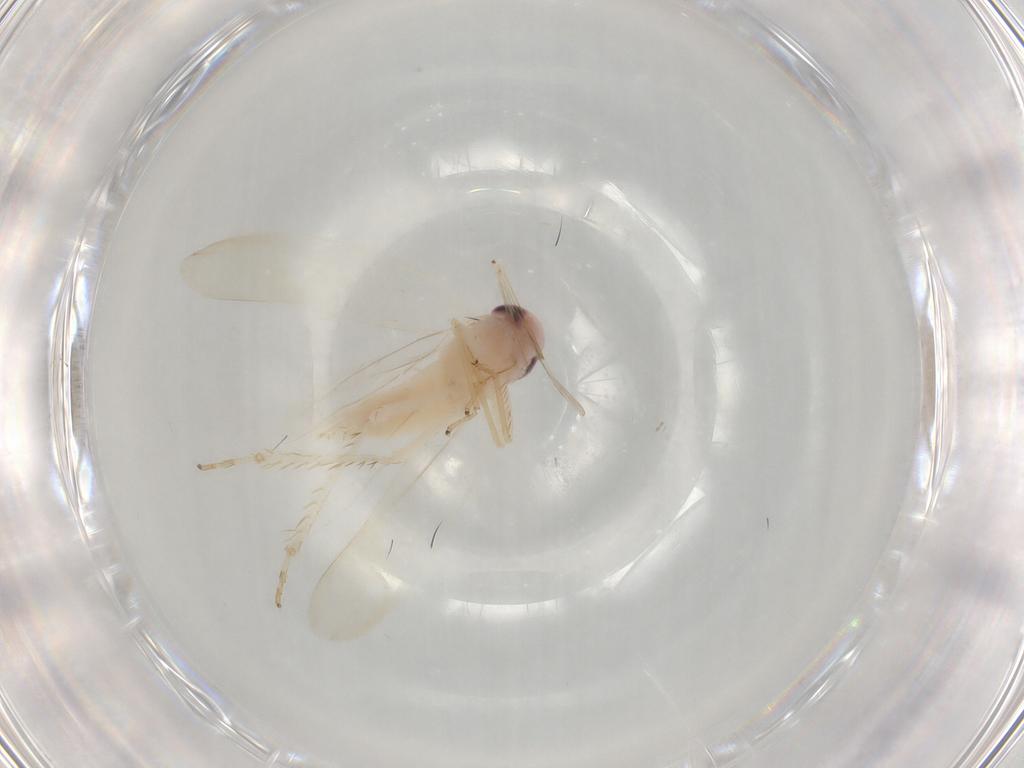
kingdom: Animalia
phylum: Arthropoda
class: Insecta
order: Hemiptera
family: Cicadellidae
